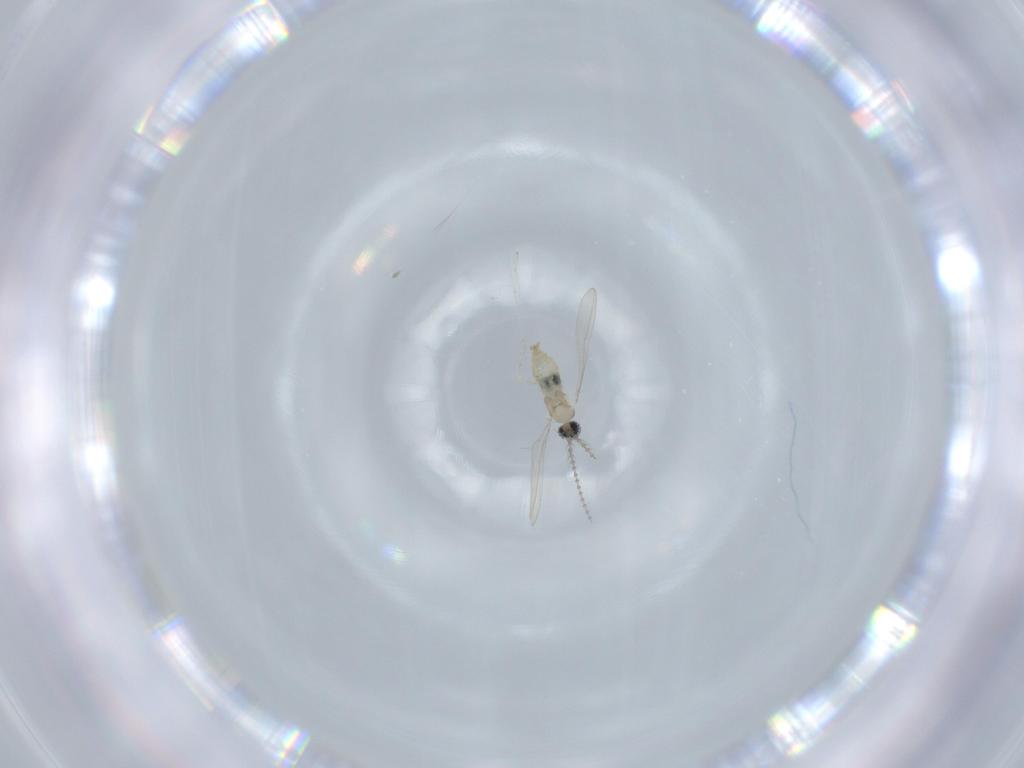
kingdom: Animalia
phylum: Arthropoda
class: Insecta
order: Diptera
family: Cecidomyiidae
